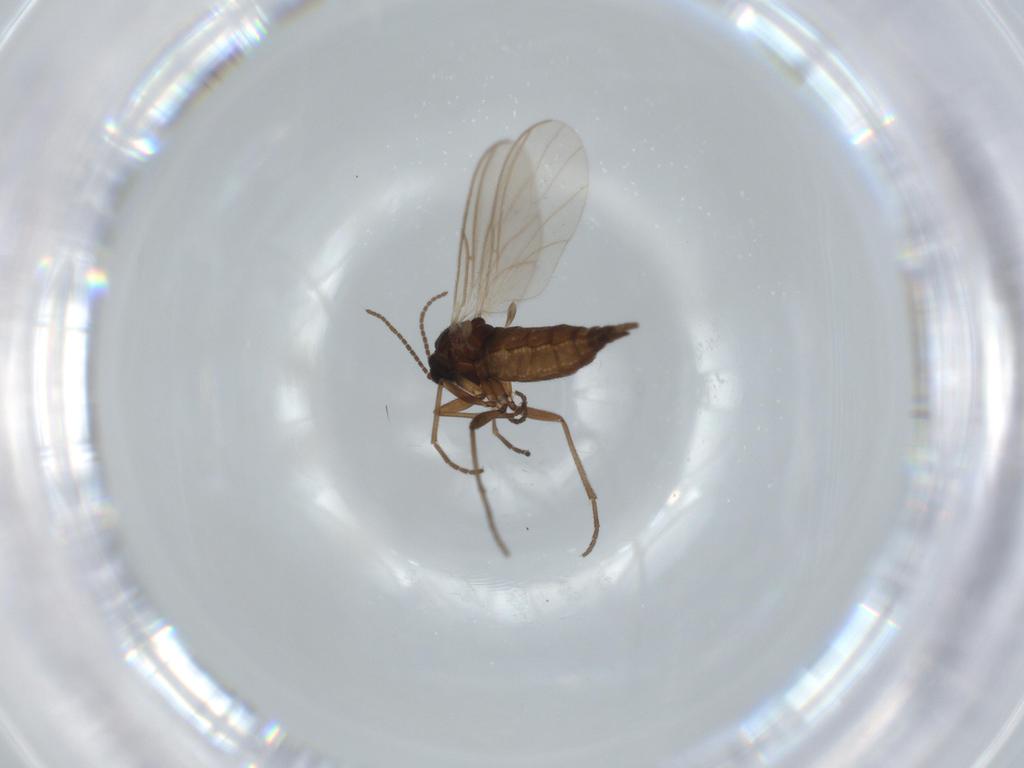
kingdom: Animalia
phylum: Arthropoda
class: Insecta
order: Diptera
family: Sciaridae
